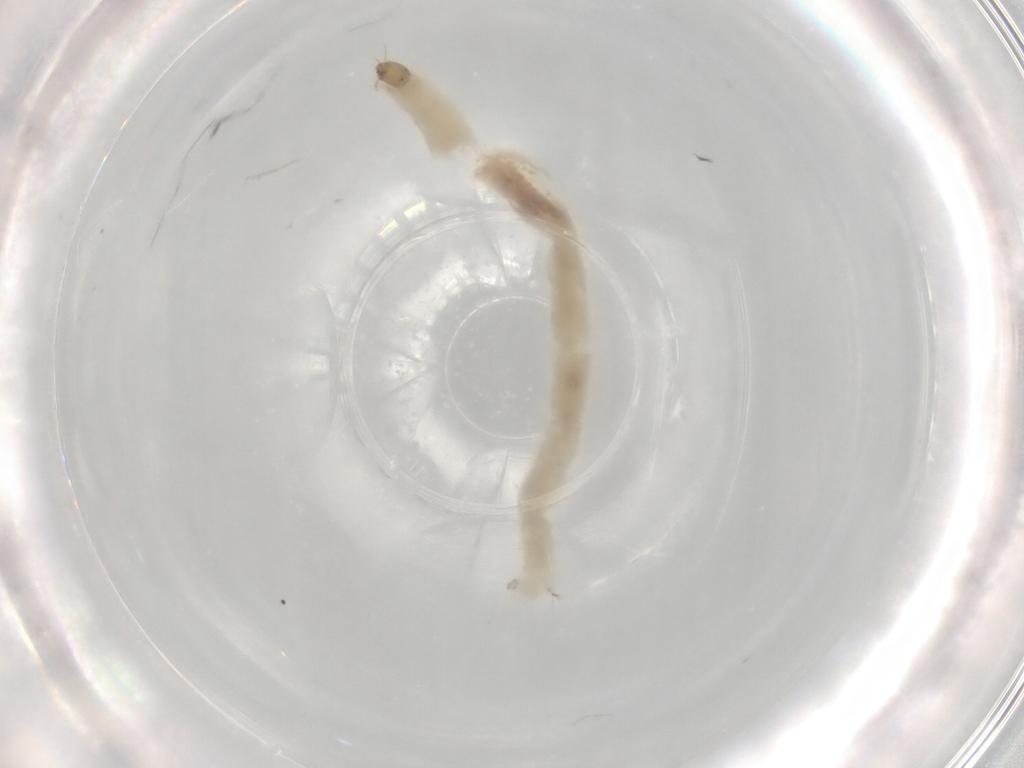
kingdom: Animalia
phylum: Arthropoda
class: Insecta
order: Diptera
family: Chironomidae
